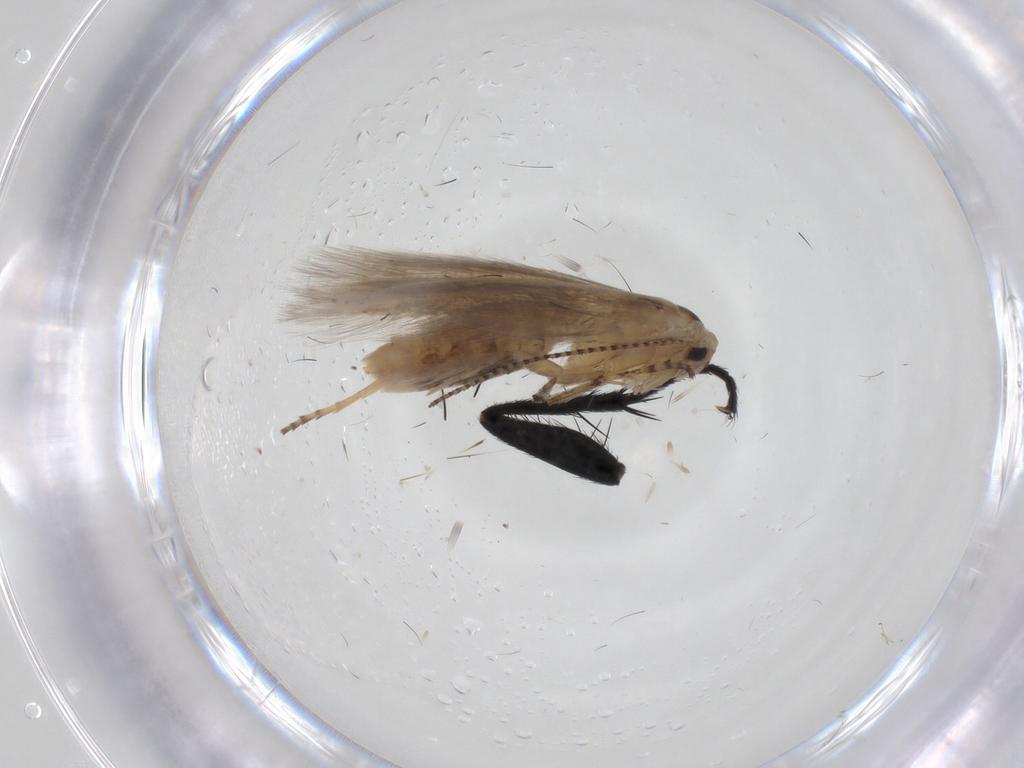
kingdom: Animalia
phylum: Arthropoda
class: Insecta
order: Lepidoptera
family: Bucculatricidae
